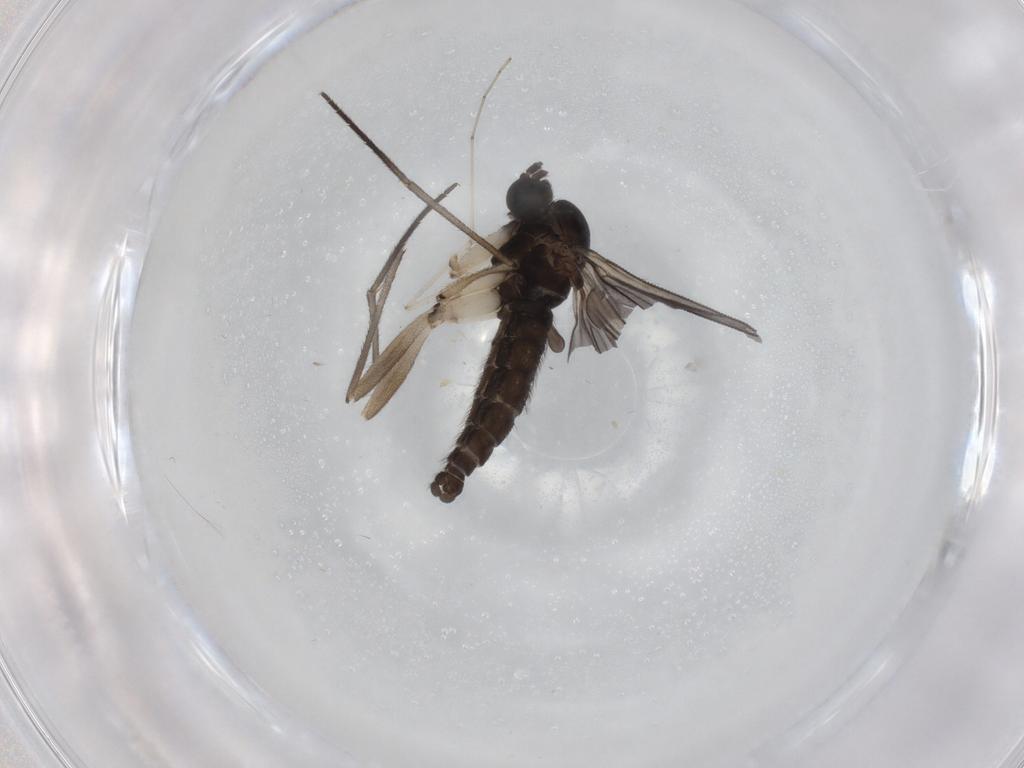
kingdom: Animalia
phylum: Arthropoda
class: Insecta
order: Diptera
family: Sciaridae
